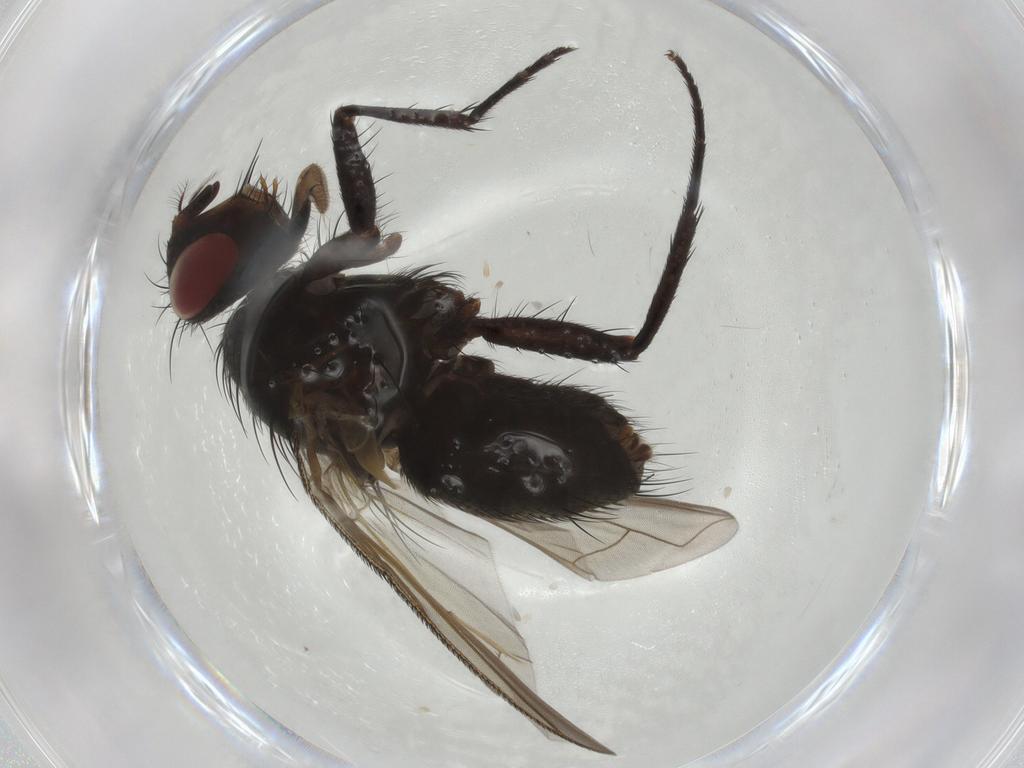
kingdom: Animalia
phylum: Arthropoda
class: Insecta
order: Diptera
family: Calliphoridae
